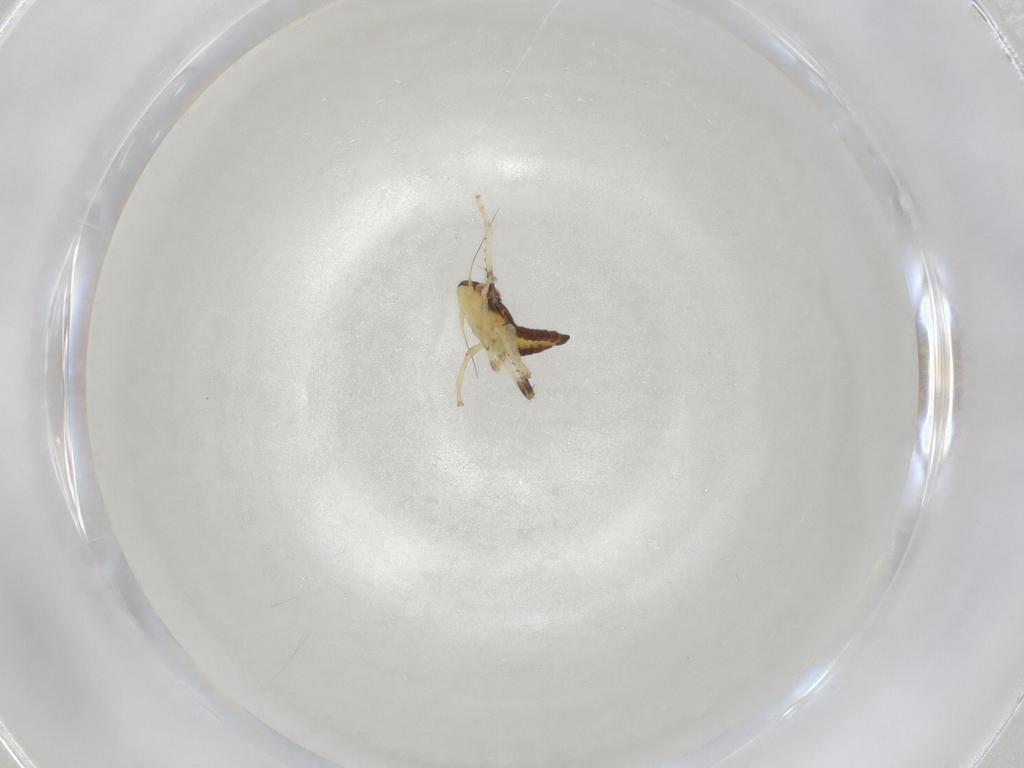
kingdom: Animalia
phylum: Arthropoda
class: Insecta
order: Hemiptera
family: Cicadellidae
